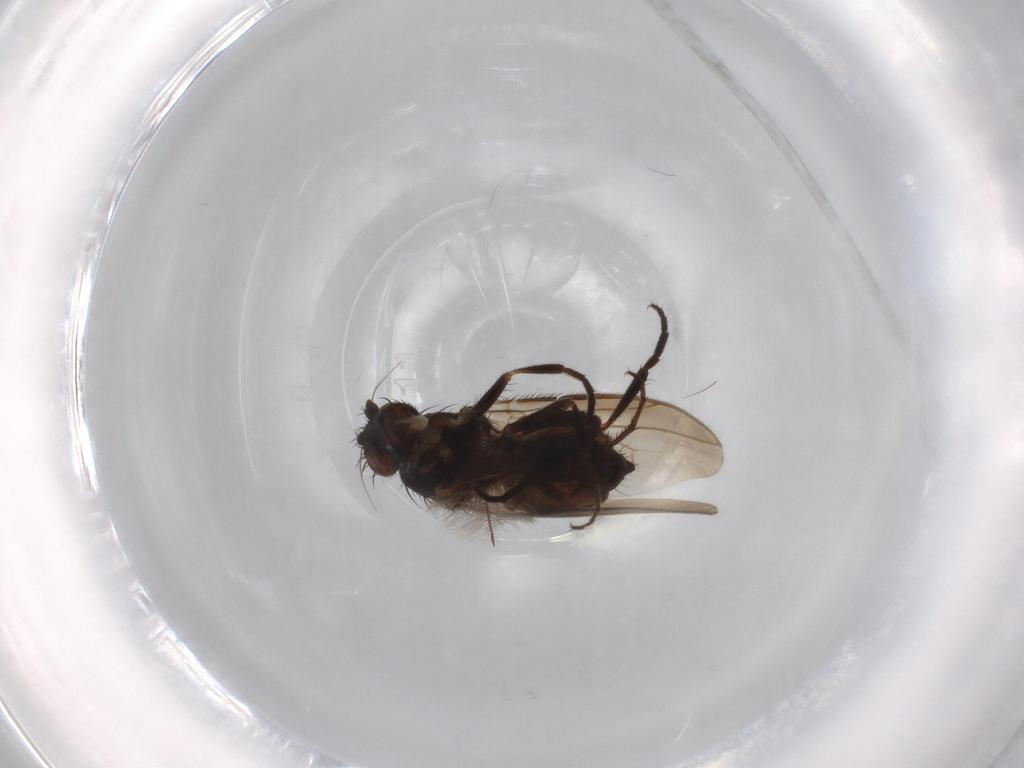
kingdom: Animalia
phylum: Arthropoda
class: Insecta
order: Diptera
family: Sphaeroceridae
